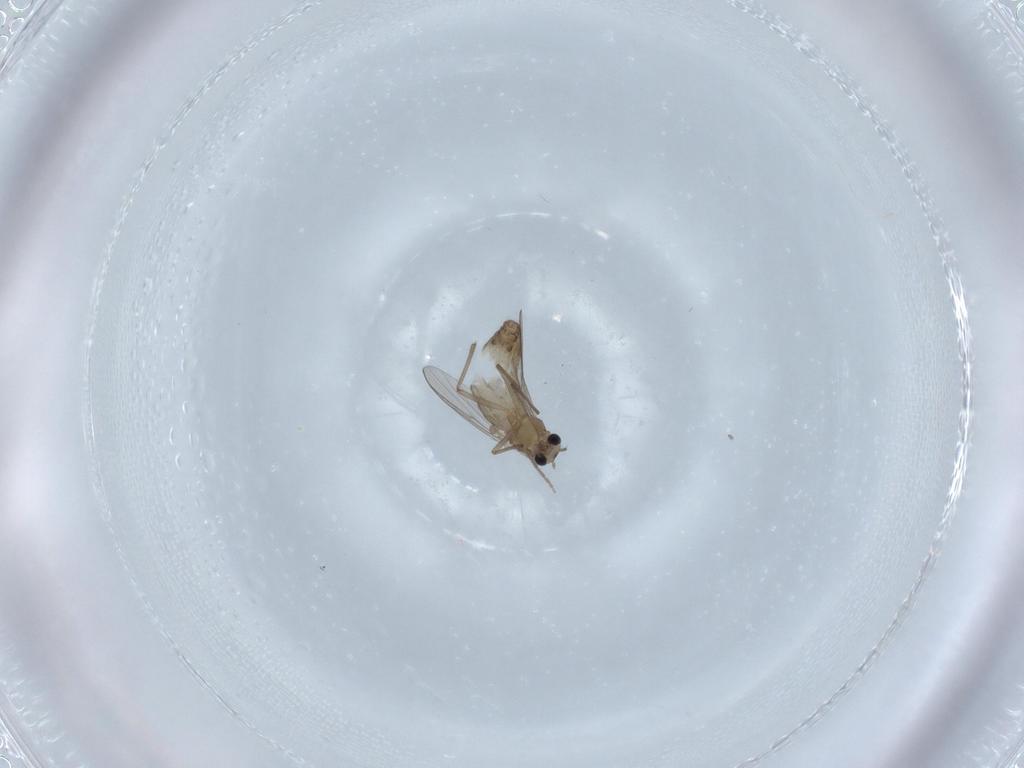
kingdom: Animalia
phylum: Arthropoda
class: Insecta
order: Diptera
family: Chironomidae
